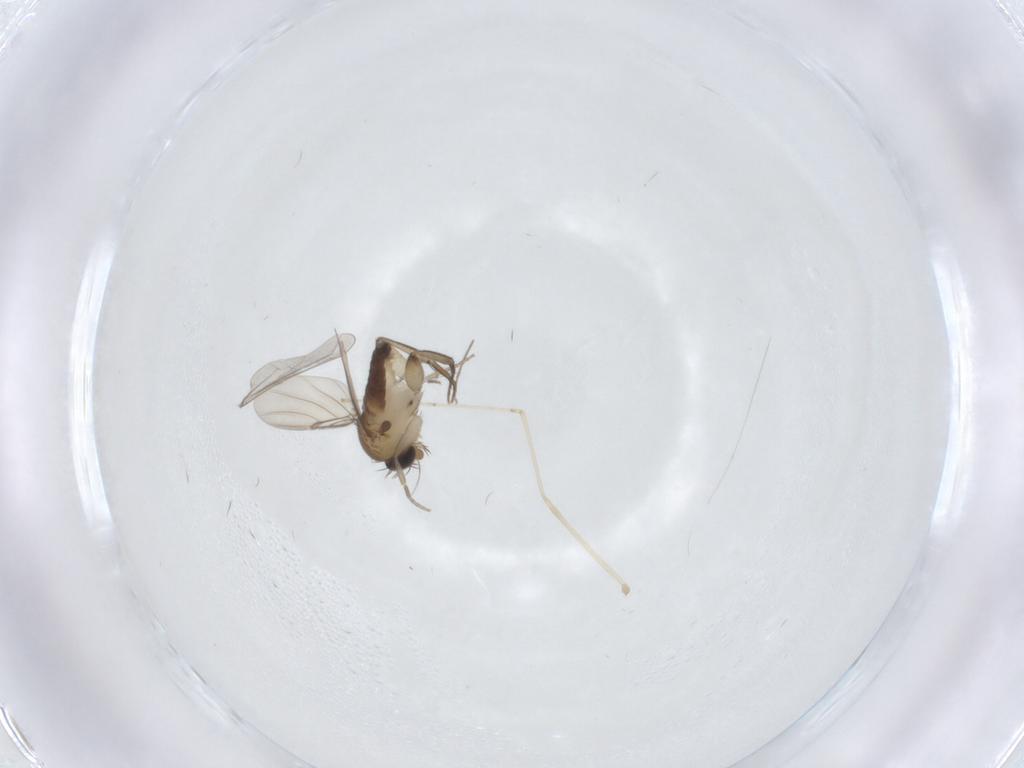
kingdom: Animalia
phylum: Arthropoda
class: Insecta
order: Diptera
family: Phoridae
